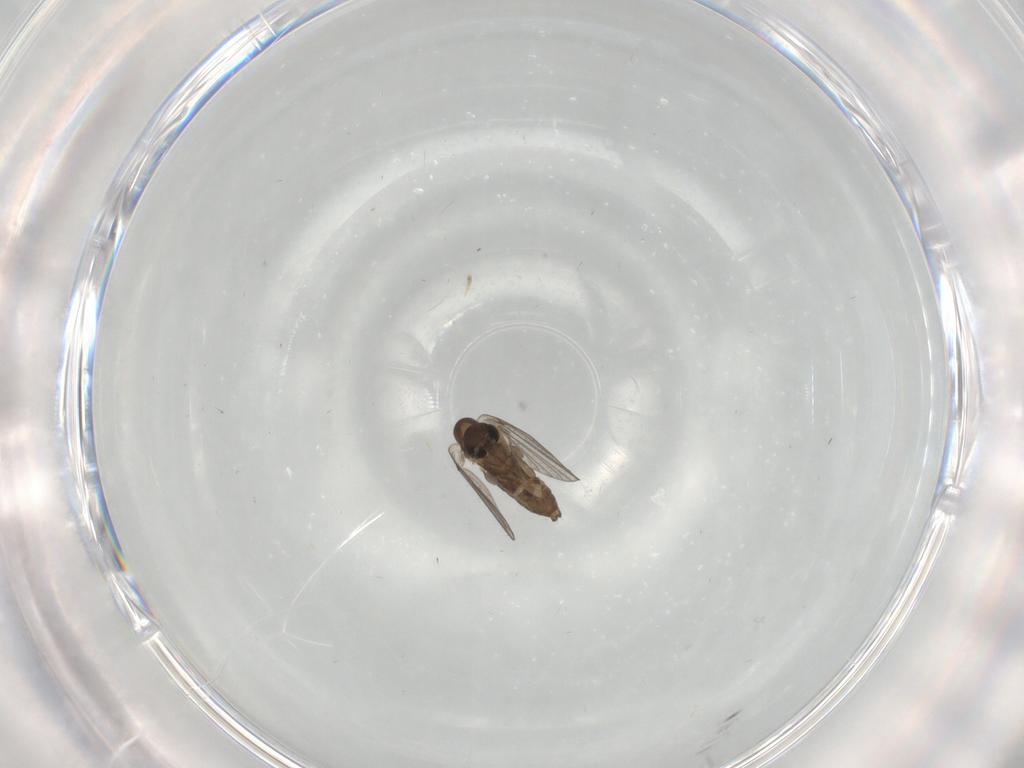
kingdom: Animalia
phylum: Arthropoda
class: Insecta
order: Diptera
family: Psychodidae
